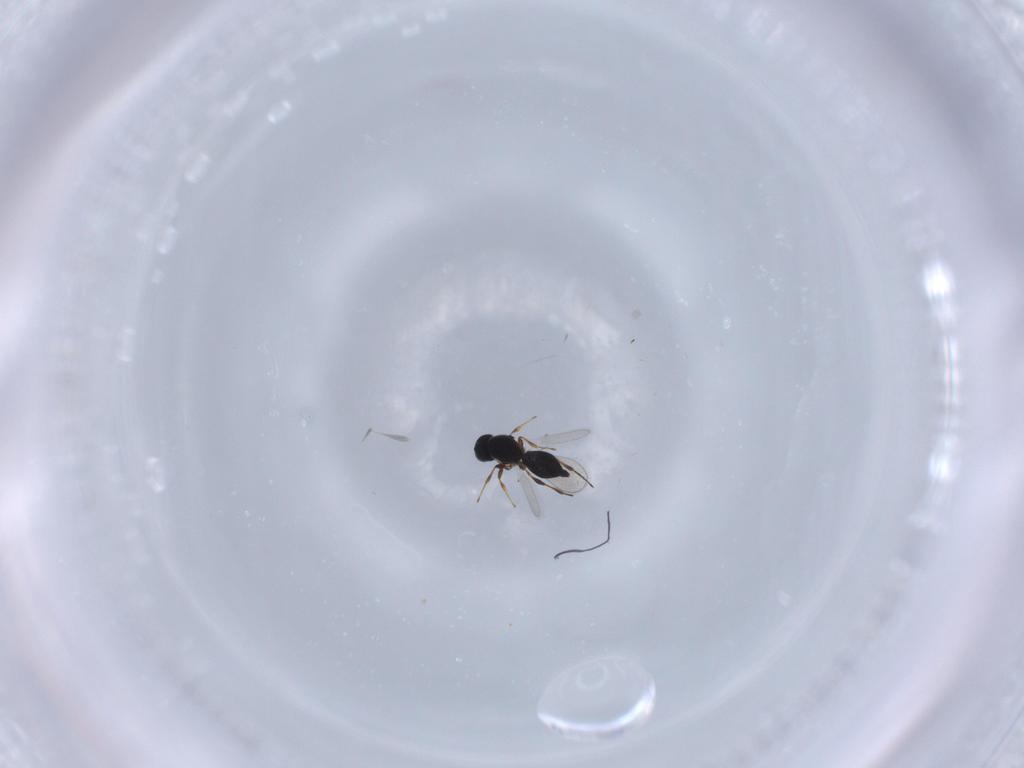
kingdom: Animalia
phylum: Arthropoda
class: Insecta
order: Hymenoptera
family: Platygastridae
